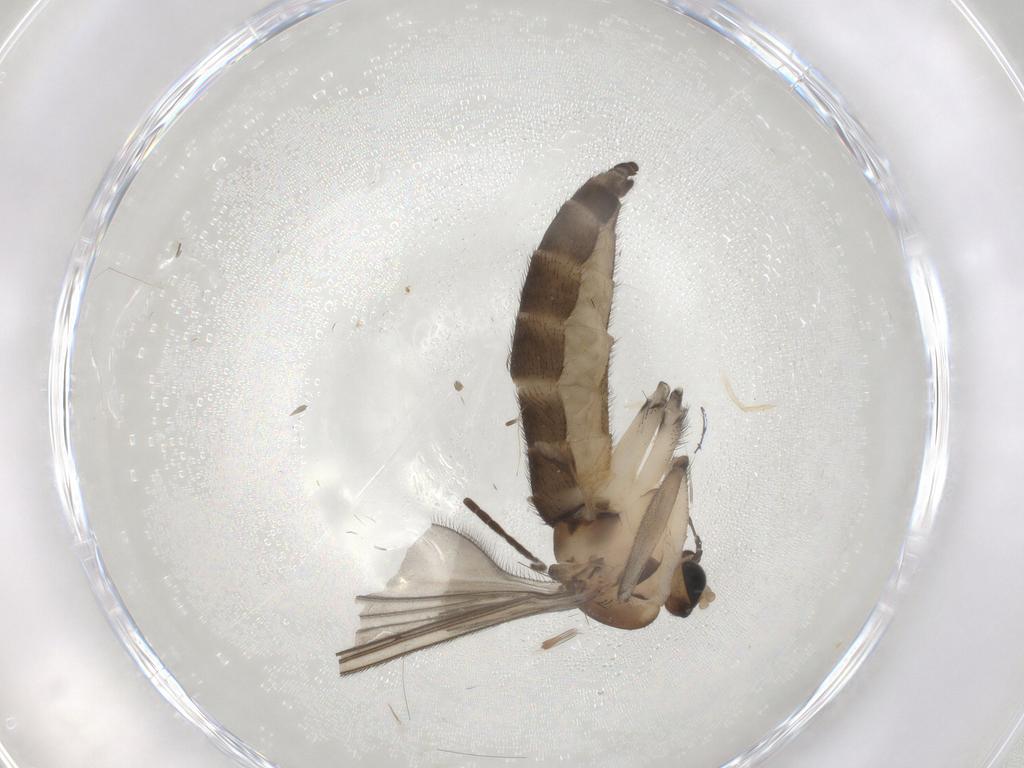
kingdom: Animalia
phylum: Arthropoda
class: Insecta
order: Diptera
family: Sciaridae
